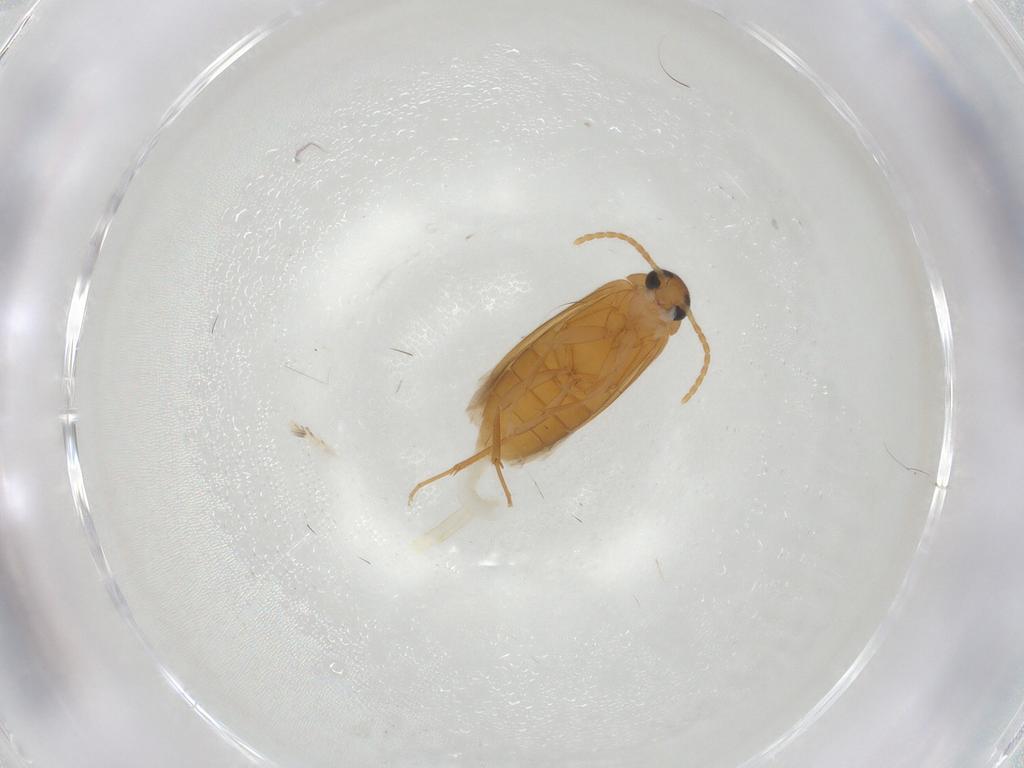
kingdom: Animalia
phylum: Arthropoda
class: Insecta
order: Coleoptera
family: Scraptiidae
